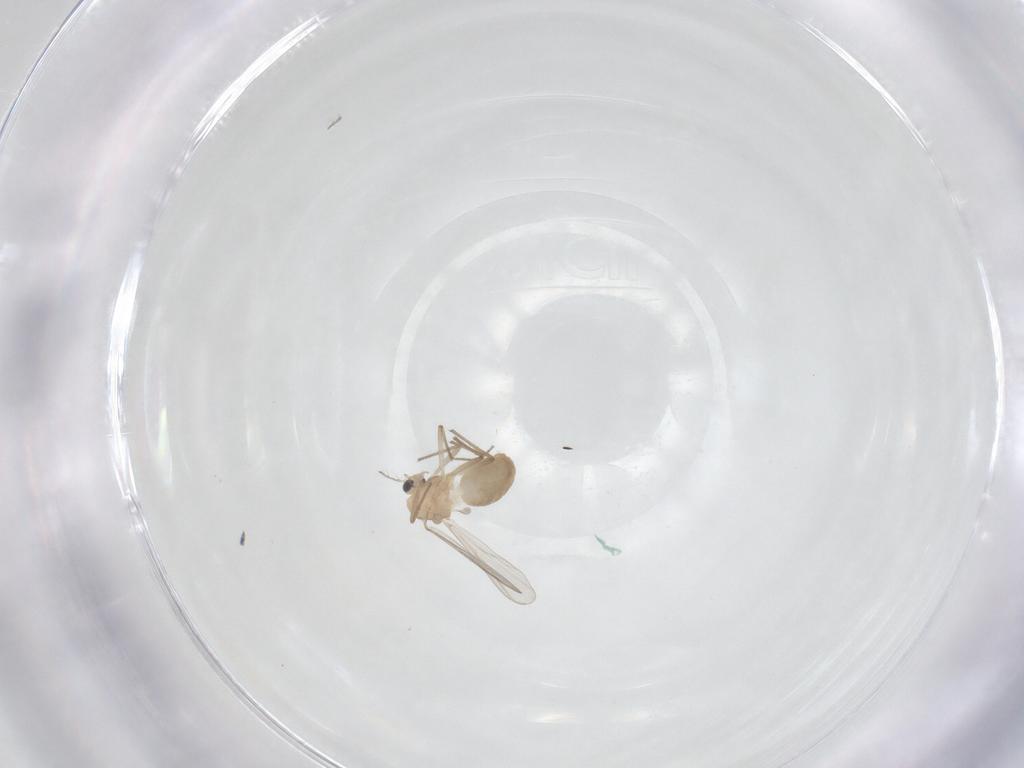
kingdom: Animalia
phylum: Arthropoda
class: Insecta
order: Diptera
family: Chironomidae
